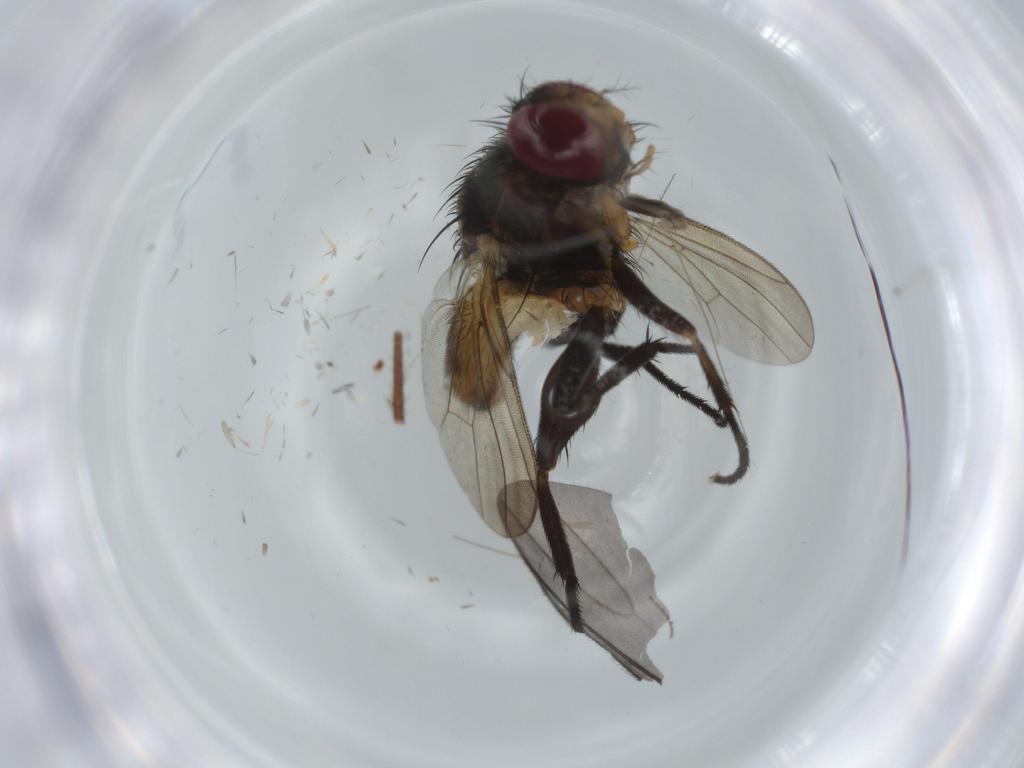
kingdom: Animalia
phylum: Arthropoda
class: Insecta
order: Diptera
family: Anthomyiidae
